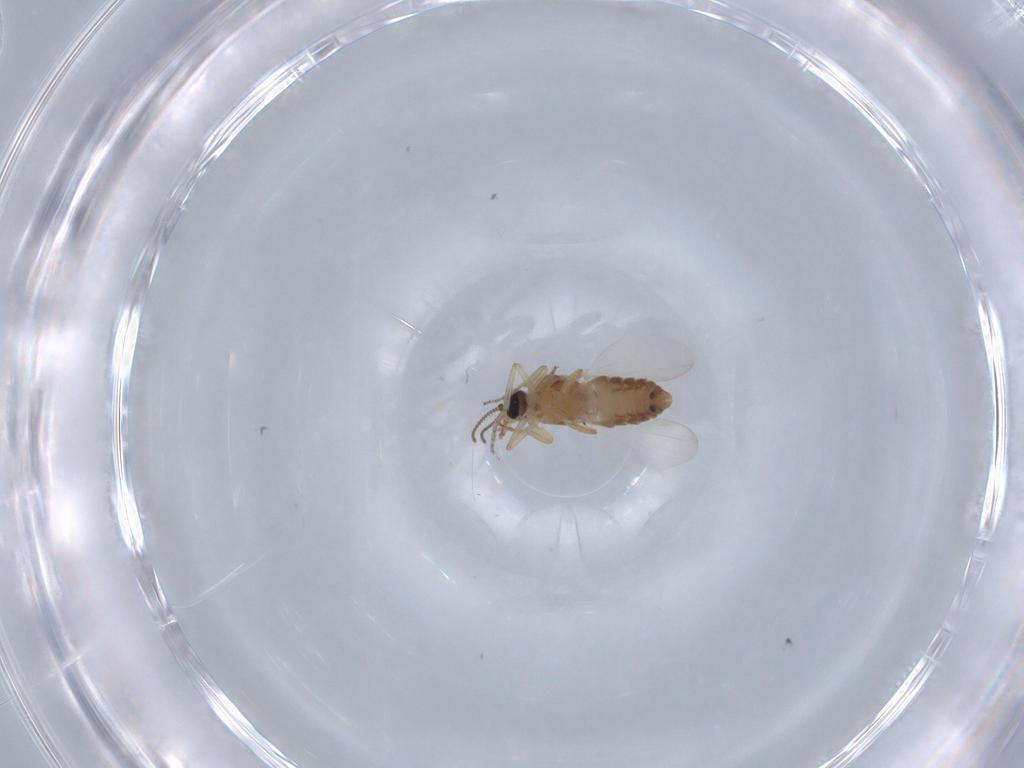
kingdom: Animalia
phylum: Arthropoda
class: Insecta
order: Diptera
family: Ceratopogonidae
